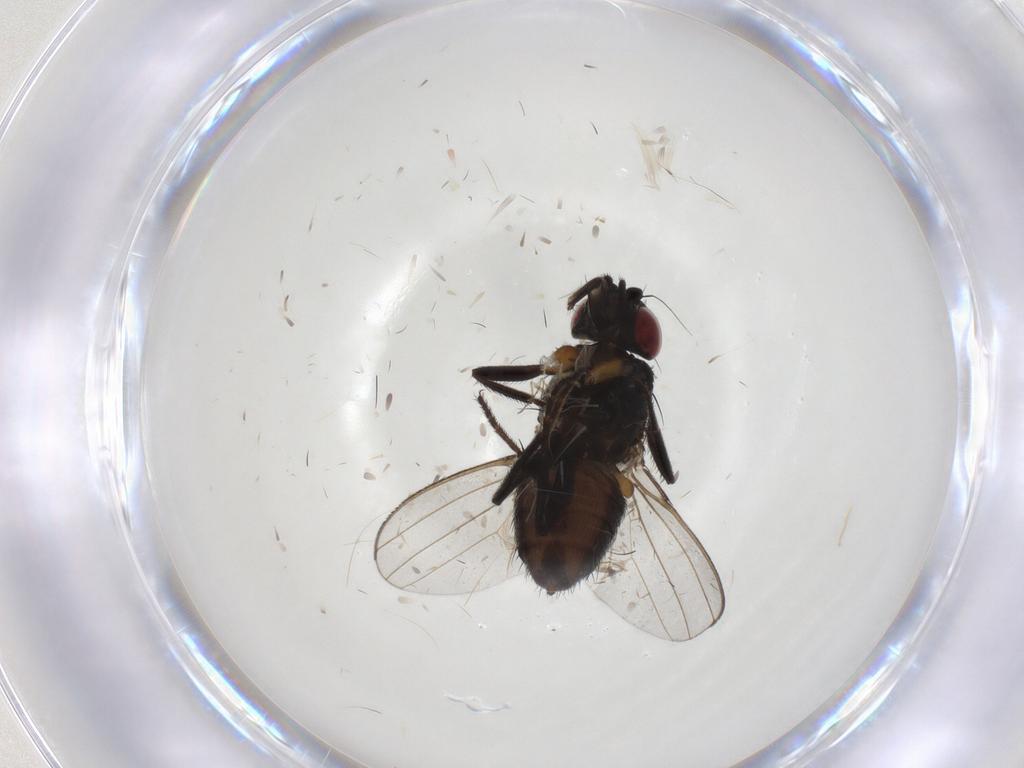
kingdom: Animalia
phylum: Arthropoda
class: Insecta
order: Diptera
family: Milichiidae
